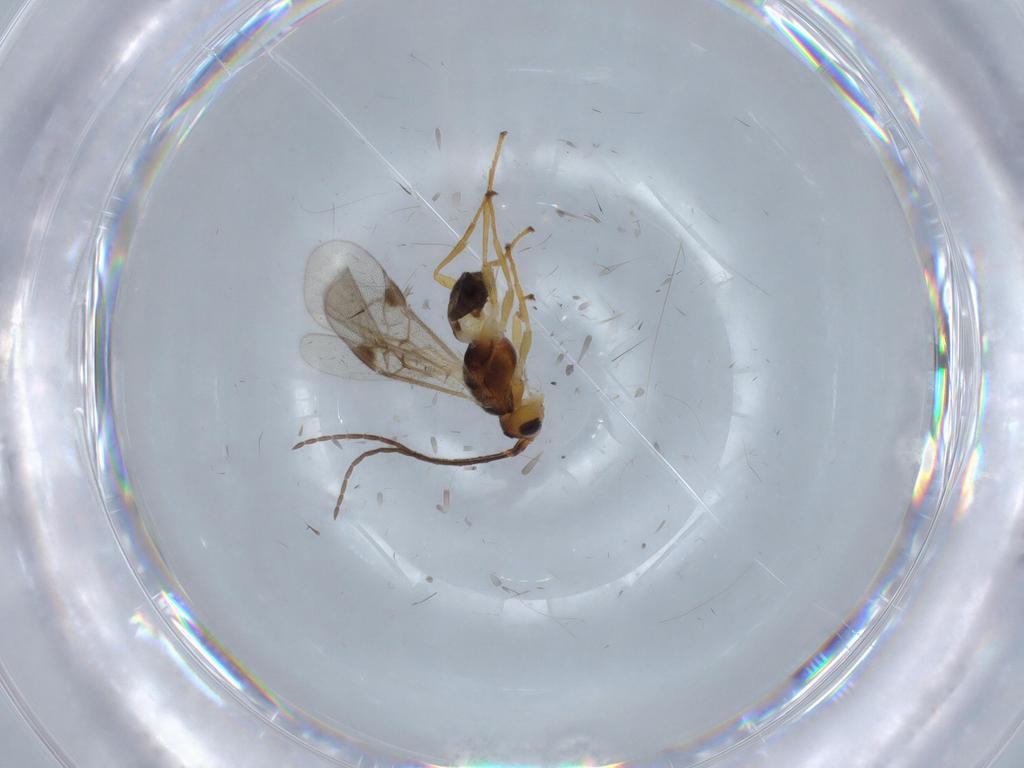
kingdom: Animalia
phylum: Arthropoda
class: Insecta
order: Hymenoptera
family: Braconidae
